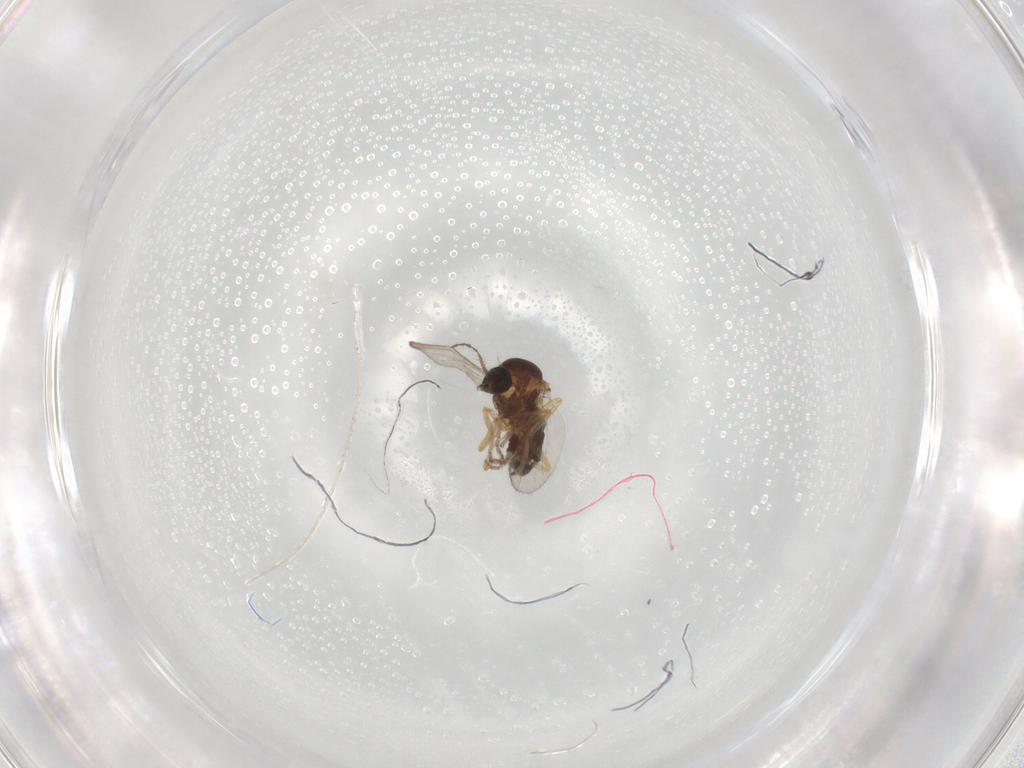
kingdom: Animalia
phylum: Arthropoda
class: Insecta
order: Diptera
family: Ceratopogonidae
